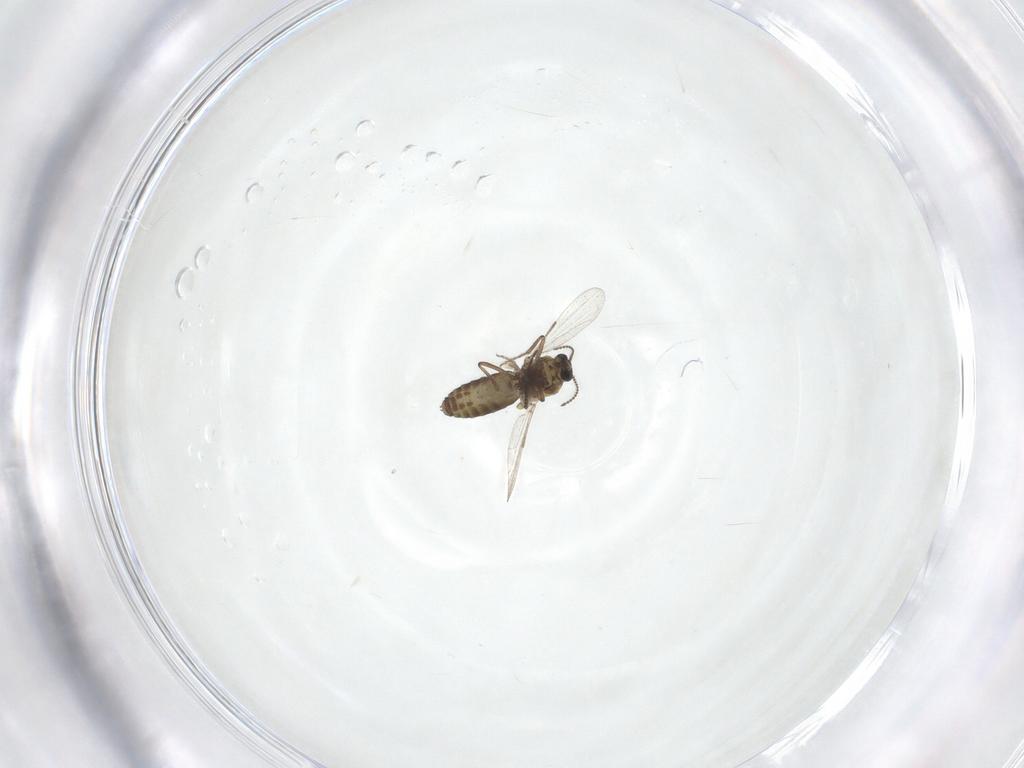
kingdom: Animalia
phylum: Arthropoda
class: Insecta
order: Diptera
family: Ceratopogonidae
